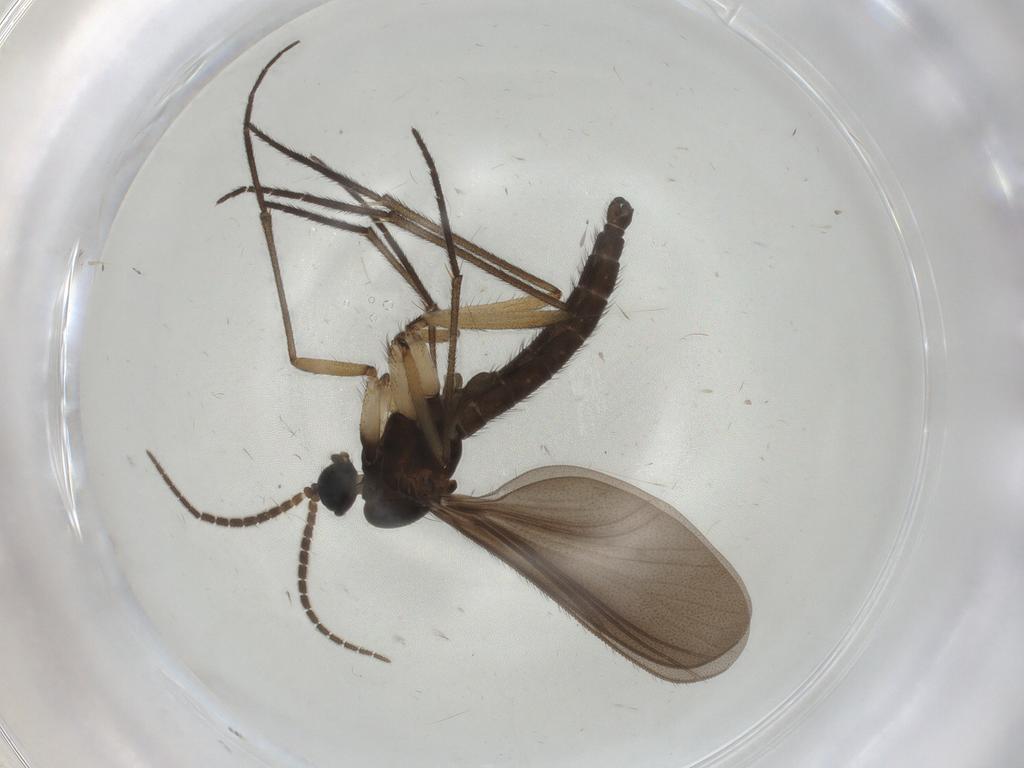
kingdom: Animalia
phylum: Arthropoda
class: Insecta
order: Diptera
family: Sciaridae
